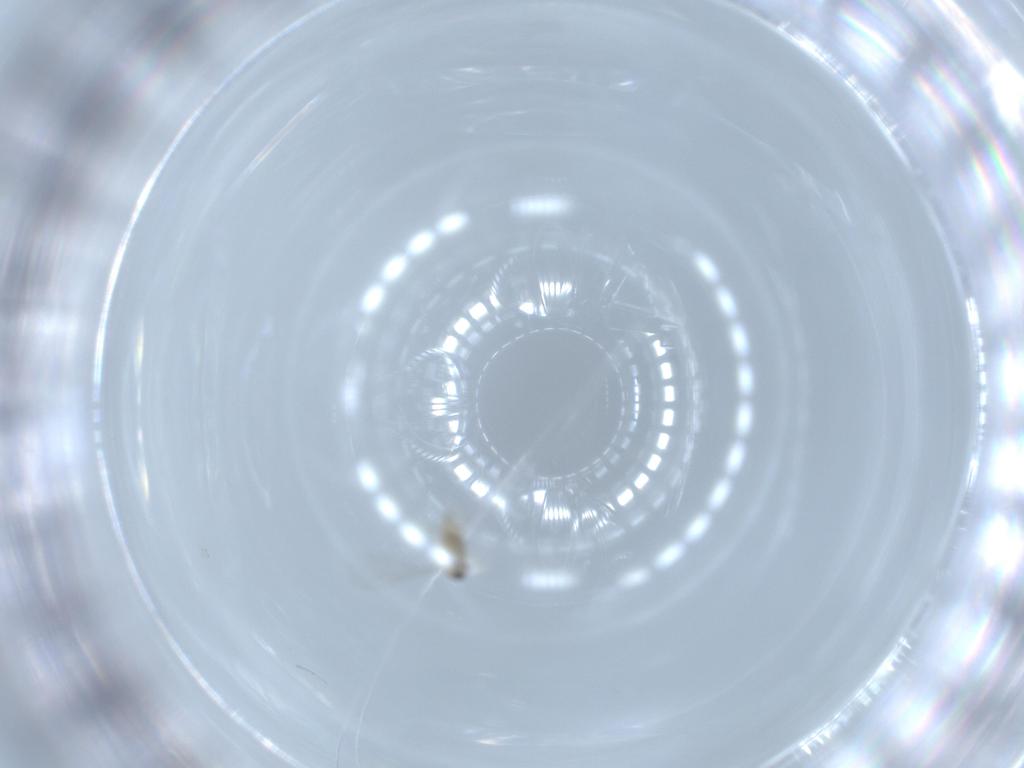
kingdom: Animalia
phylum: Arthropoda
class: Insecta
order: Diptera
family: Cecidomyiidae
